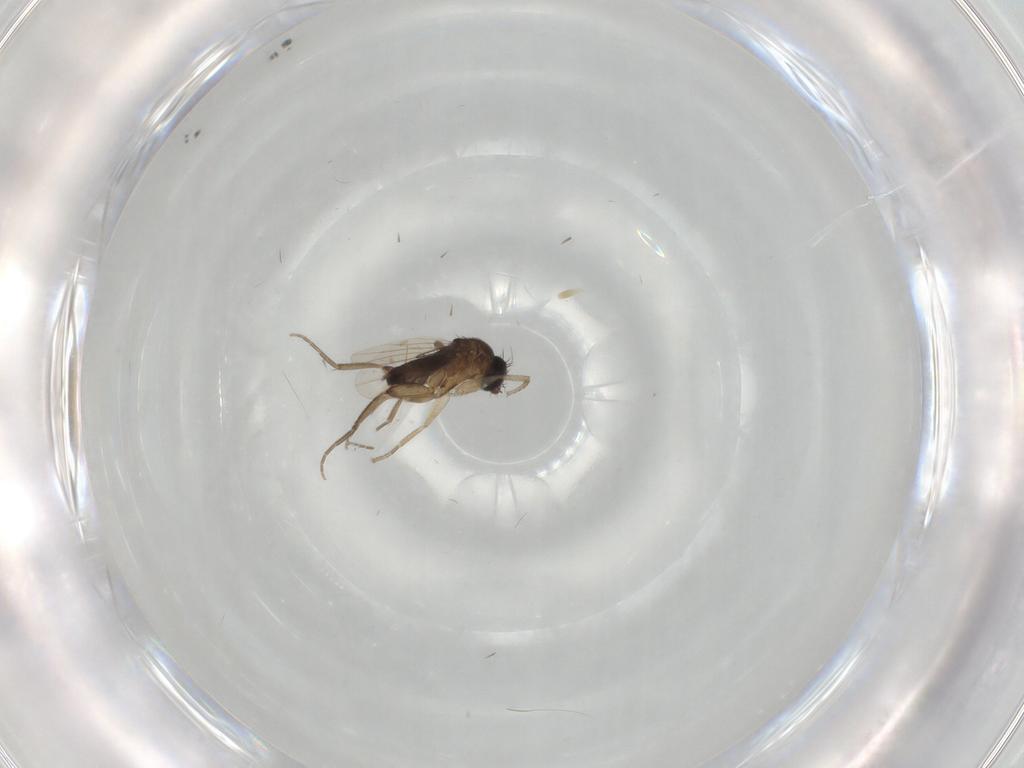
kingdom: Animalia
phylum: Arthropoda
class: Insecta
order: Diptera
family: Phoridae
